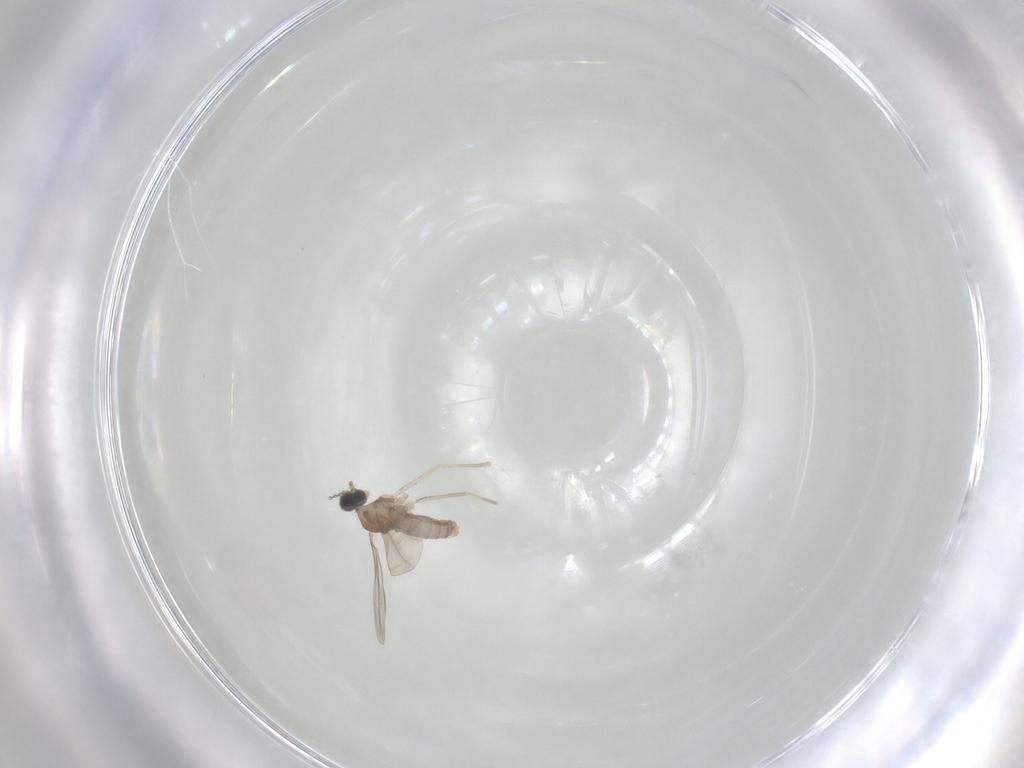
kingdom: Animalia
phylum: Arthropoda
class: Insecta
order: Diptera
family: Cecidomyiidae
